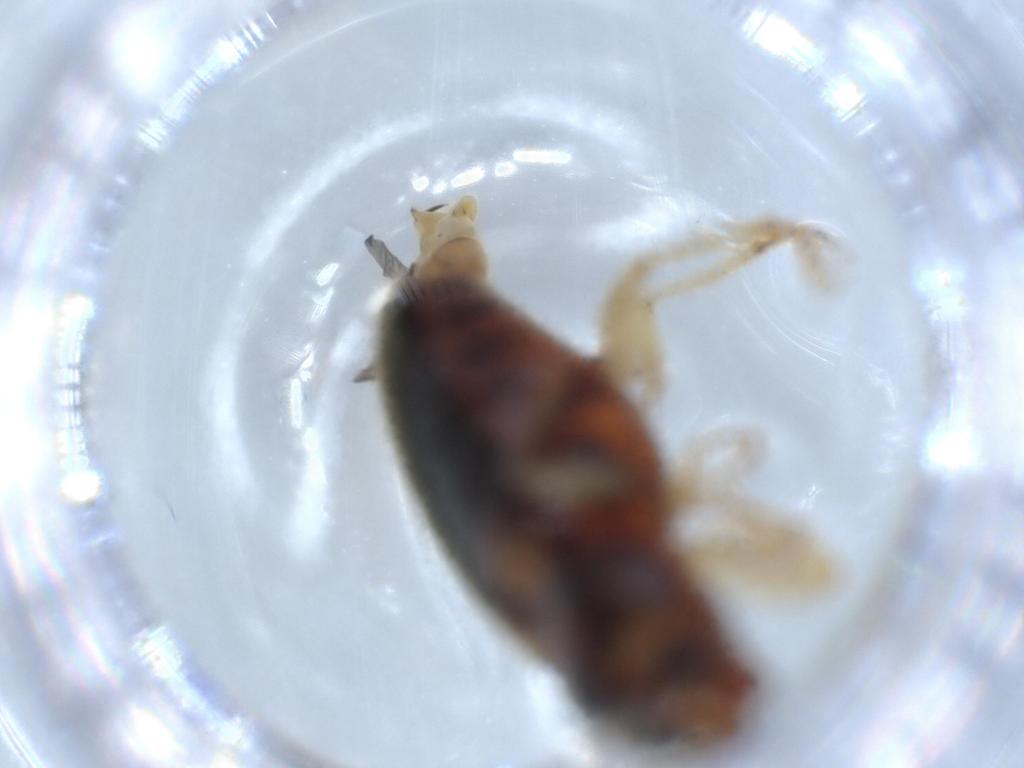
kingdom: Animalia
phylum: Arthropoda
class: Insecta
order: Coleoptera
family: Elateridae
